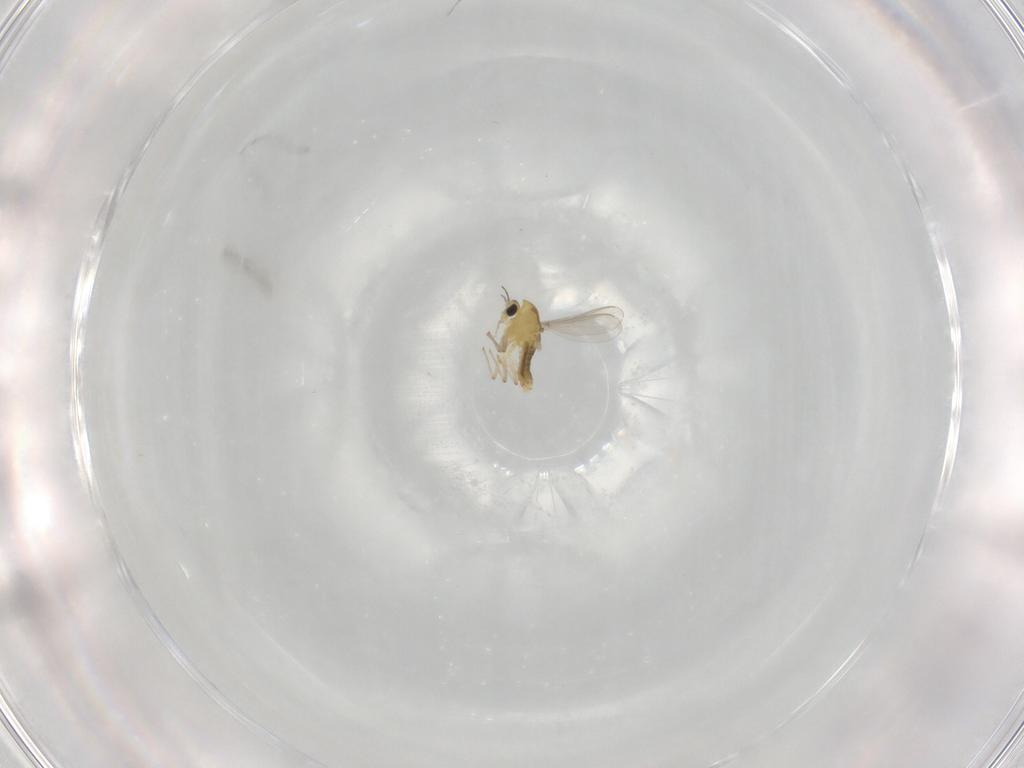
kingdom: Animalia
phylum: Arthropoda
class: Insecta
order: Diptera
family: Chironomidae
